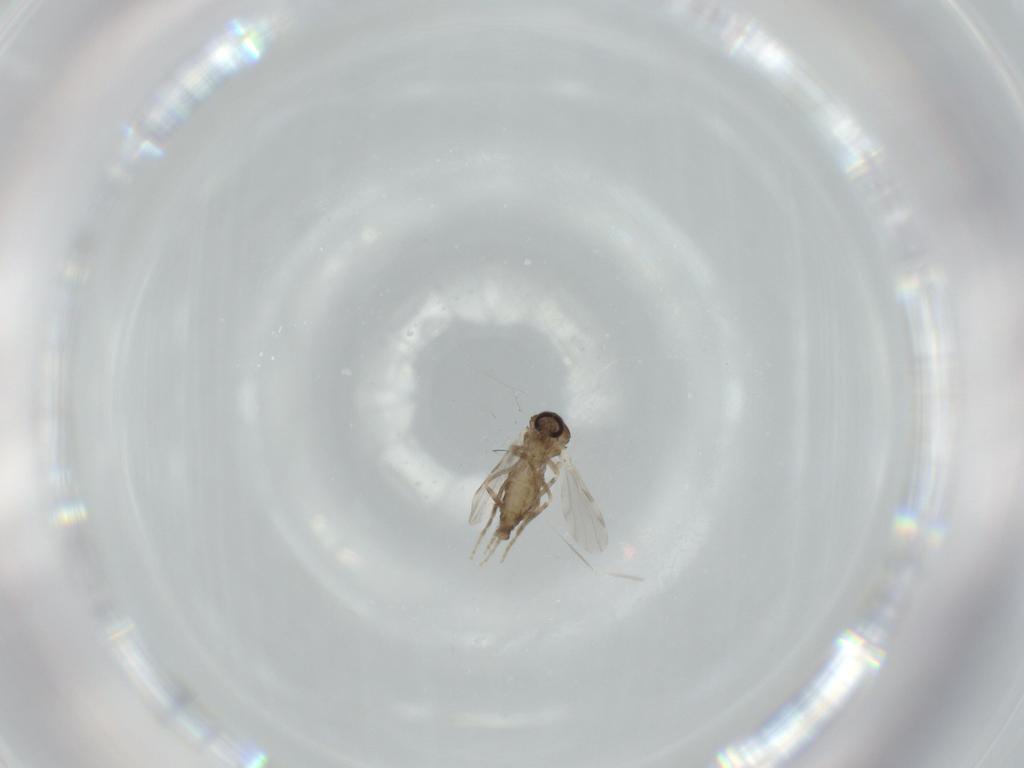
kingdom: Animalia
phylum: Arthropoda
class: Insecta
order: Diptera
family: Ceratopogonidae
